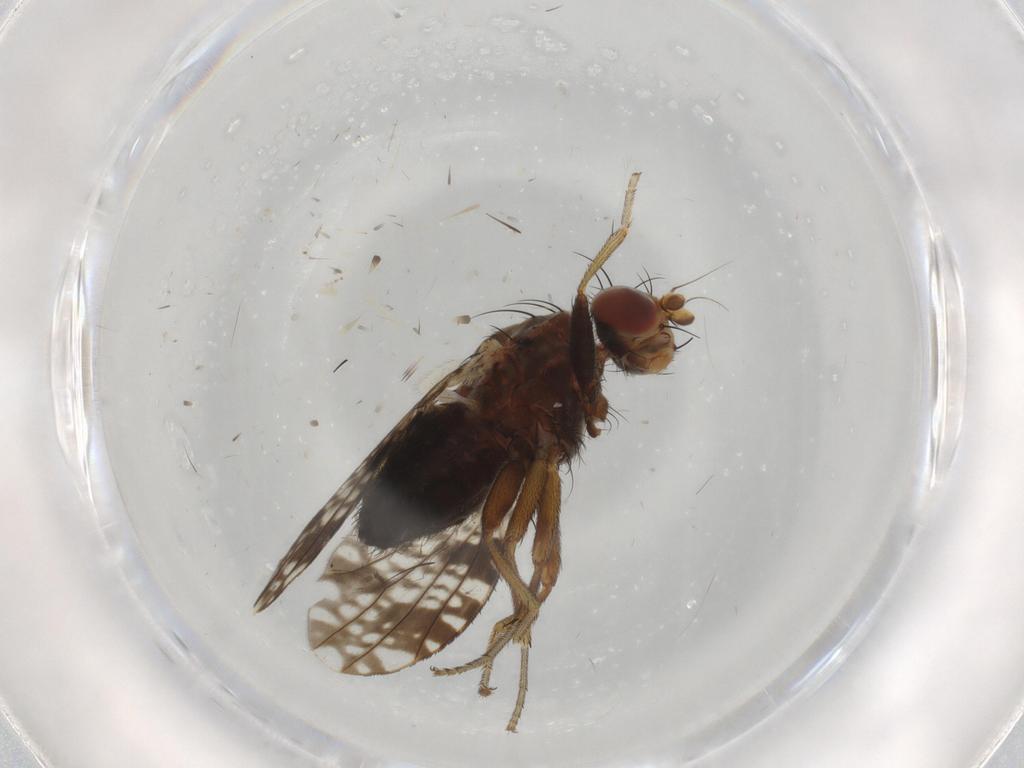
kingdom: Animalia
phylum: Arthropoda
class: Insecta
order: Diptera
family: Tephritidae
